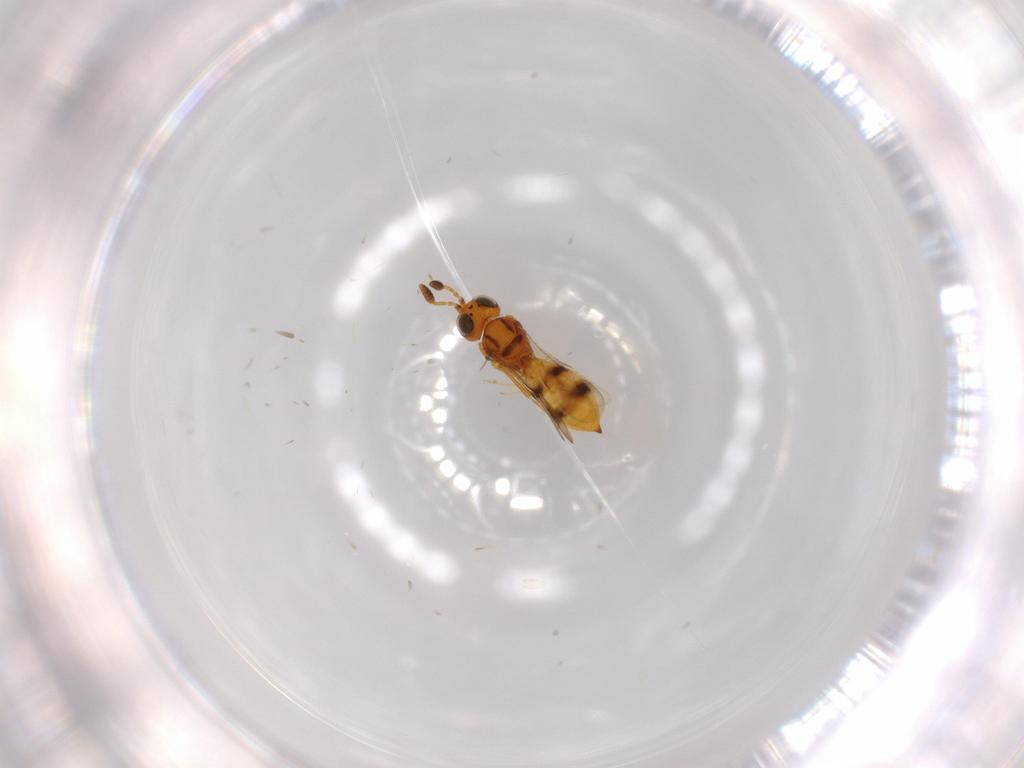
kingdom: Animalia
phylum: Arthropoda
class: Insecta
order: Hymenoptera
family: Scelionidae
